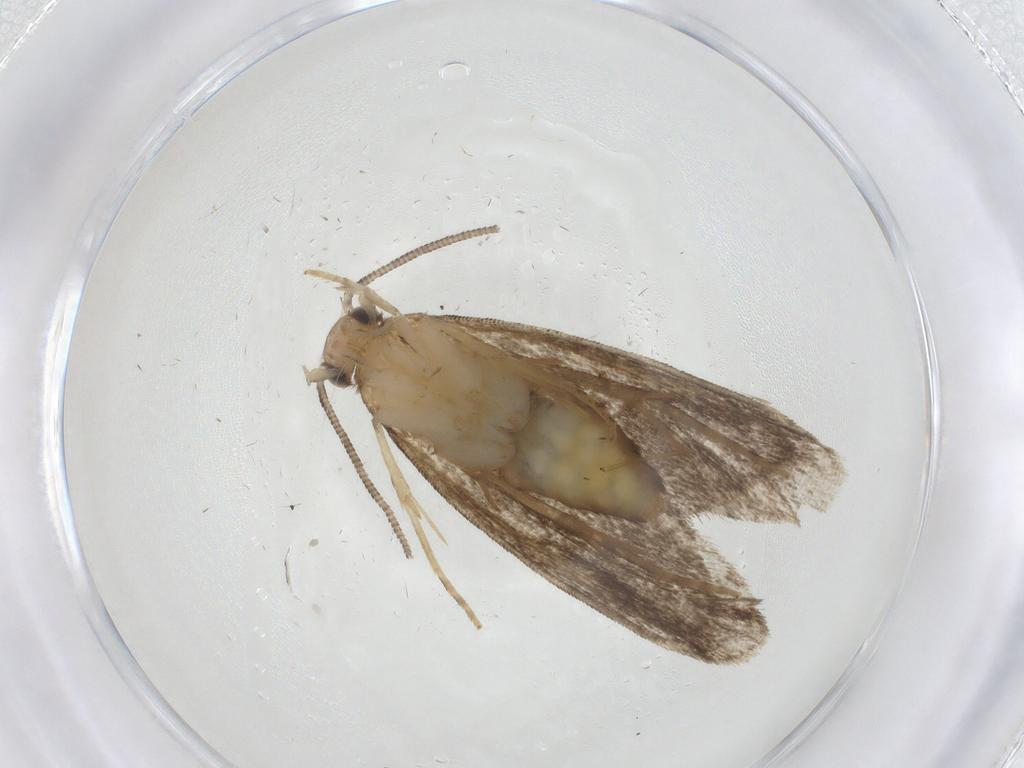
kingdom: Animalia
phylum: Arthropoda
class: Insecta
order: Lepidoptera
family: Dryadaulidae
